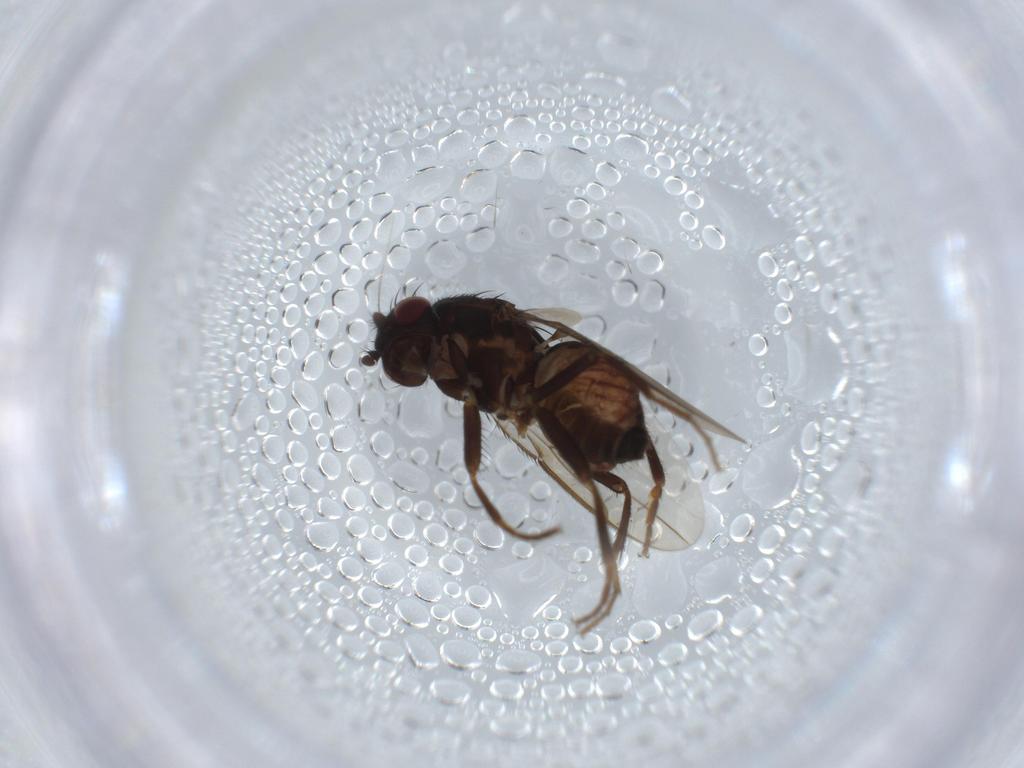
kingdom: Animalia
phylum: Arthropoda
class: Insecta
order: Diptera
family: Sphaeroceridae
